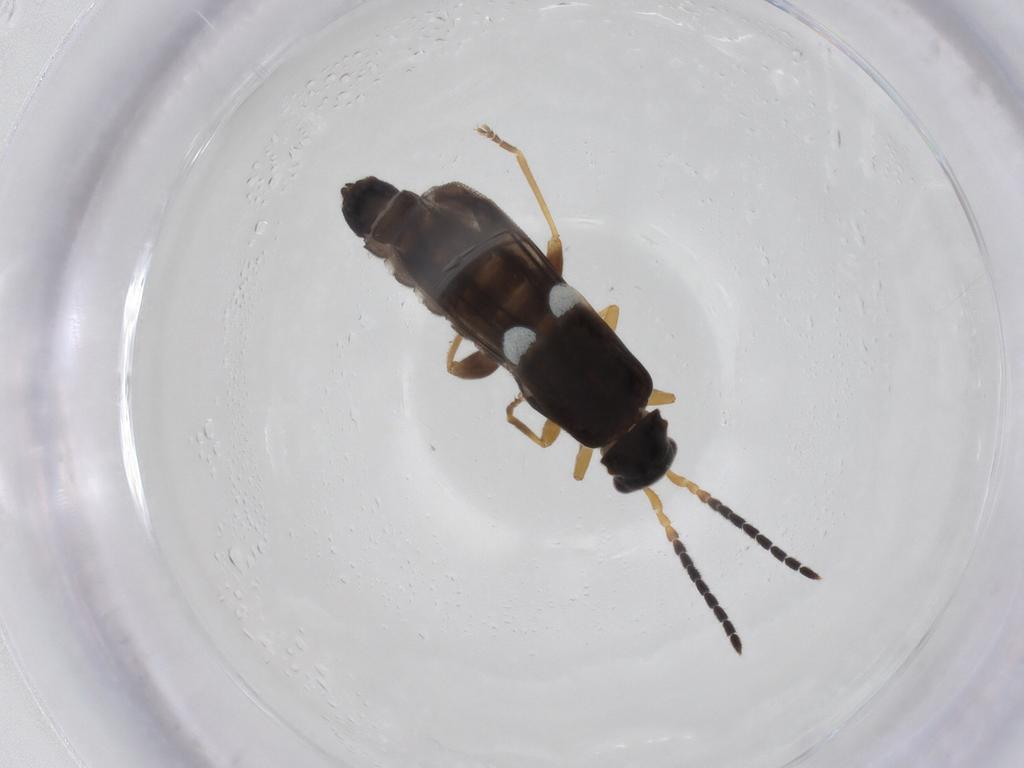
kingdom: Animalia
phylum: Arthropoda
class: Insecta
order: Coleoptera
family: Cantharidae
